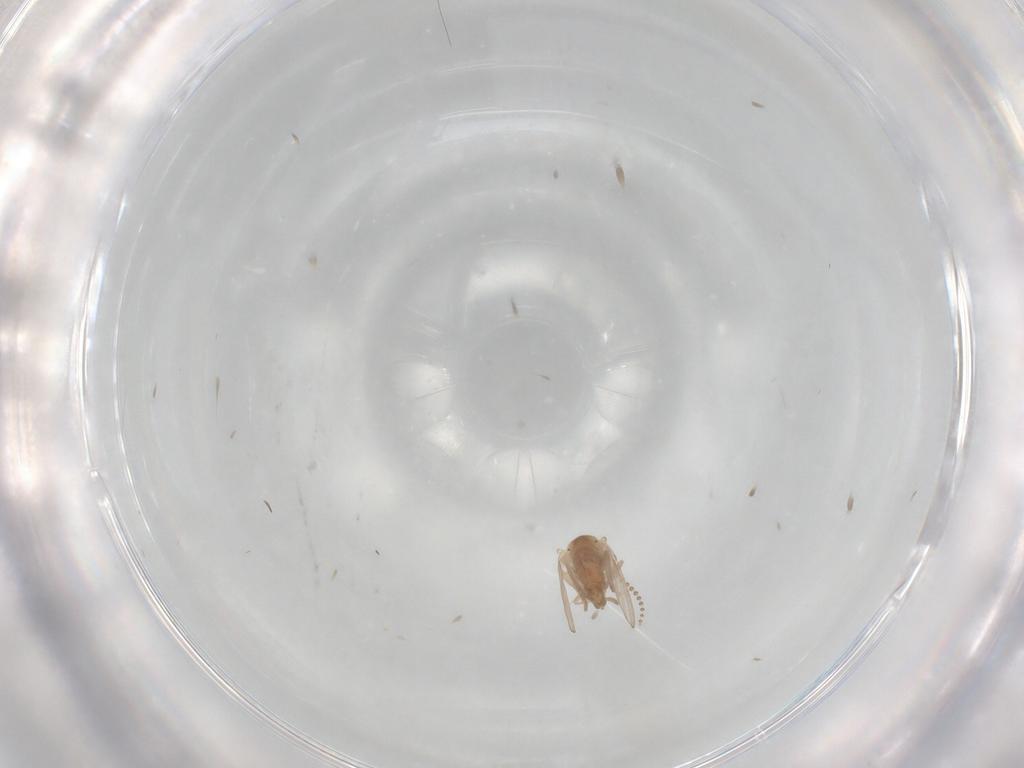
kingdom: Animalia
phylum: Arthropoda
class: Insecta
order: Diptera
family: Psychodidae
